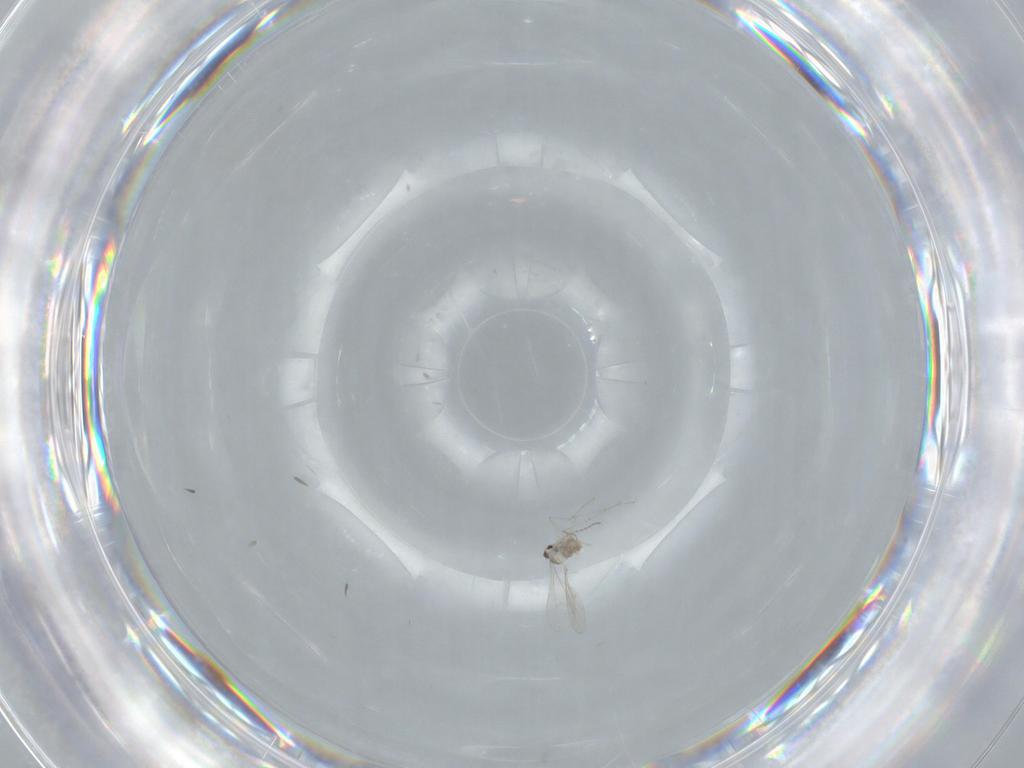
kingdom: Animalia
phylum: Arthropoda
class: Insecta
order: Diptera
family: Cecidomyiidae
